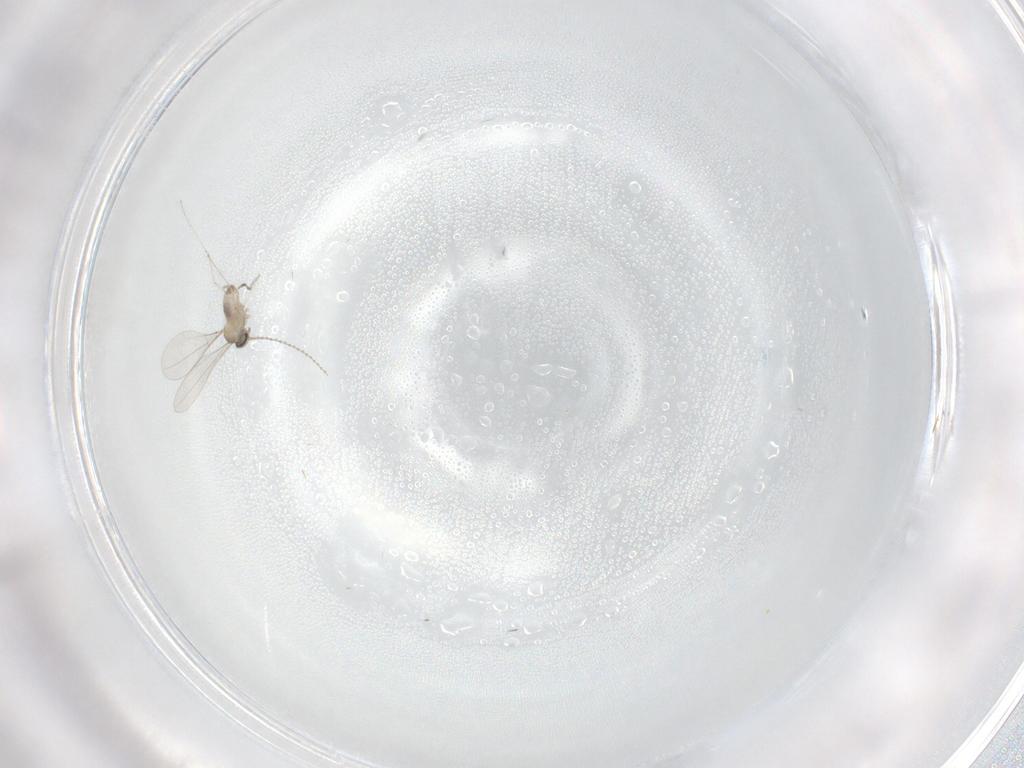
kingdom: Animalia
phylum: Arthropoda
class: Insecta
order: Diptera
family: Cecidomyiidae
